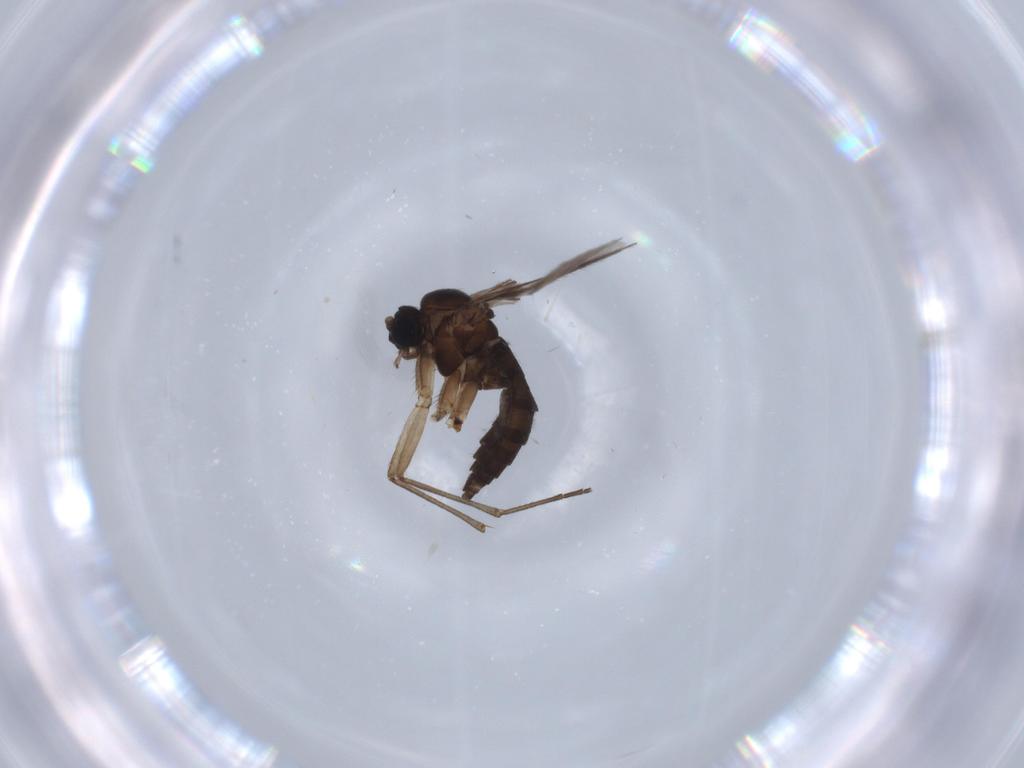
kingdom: Animalia
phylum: Arthropoda
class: Insecta
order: Diptera
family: Sciaridae
